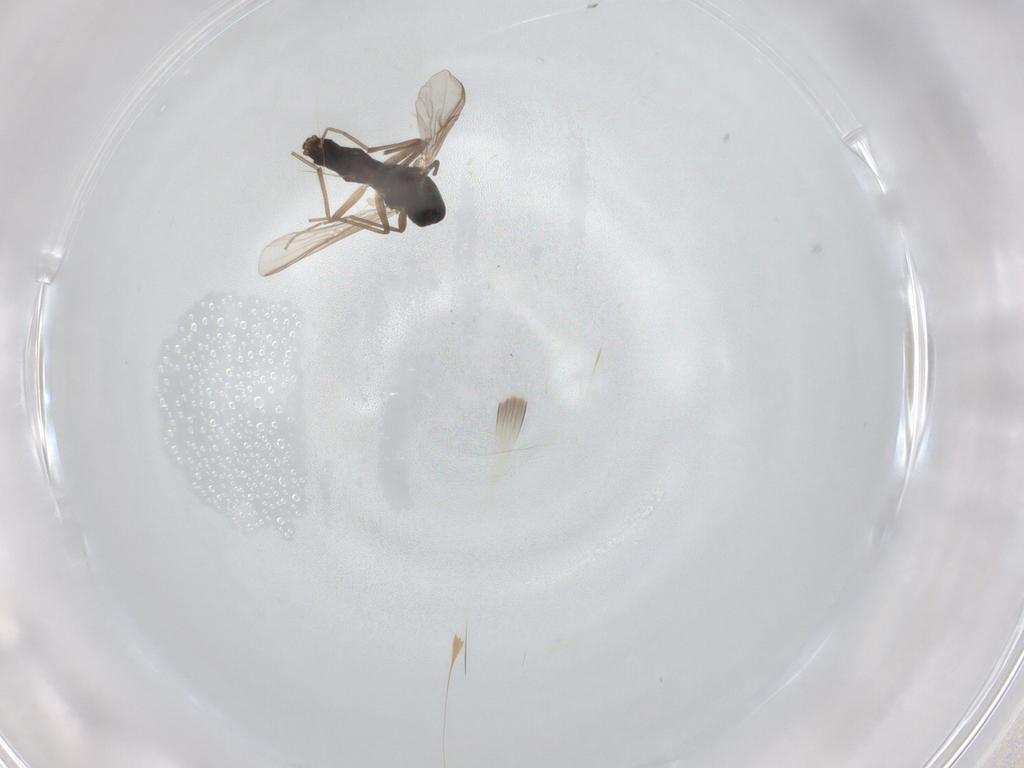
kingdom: Animalia
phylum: Arthropoda
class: Insecta
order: Diptera
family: Chironomidae
